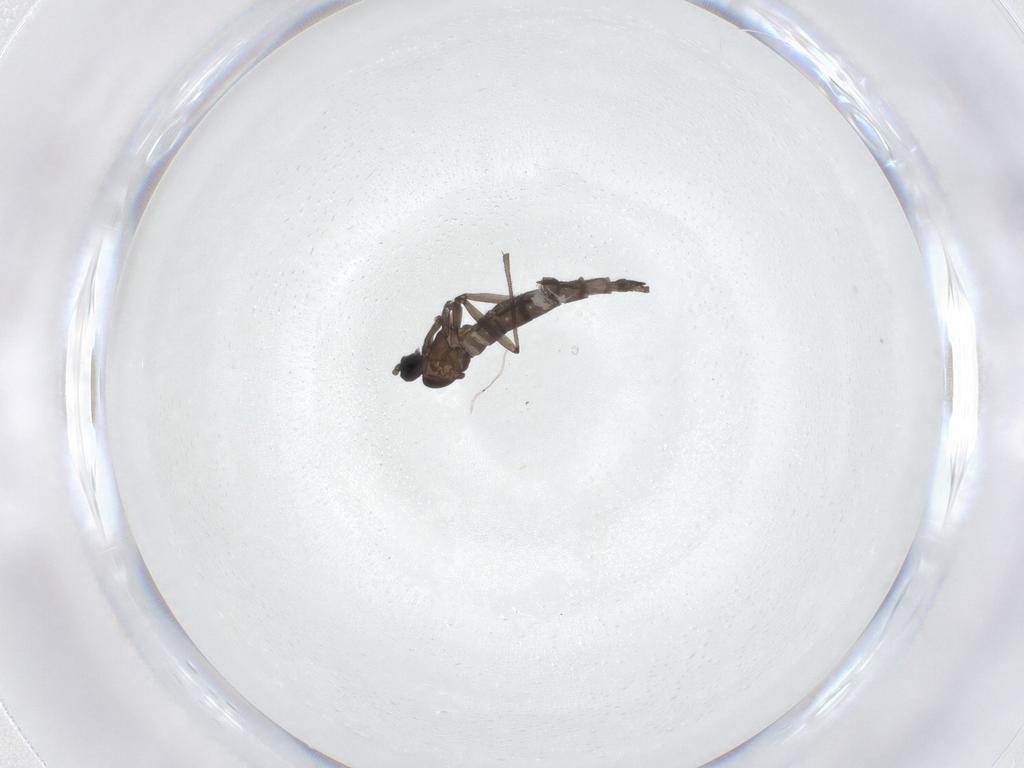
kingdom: Animalia
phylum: Arthropoda
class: Insecta
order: Diptera
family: Sciaridae
